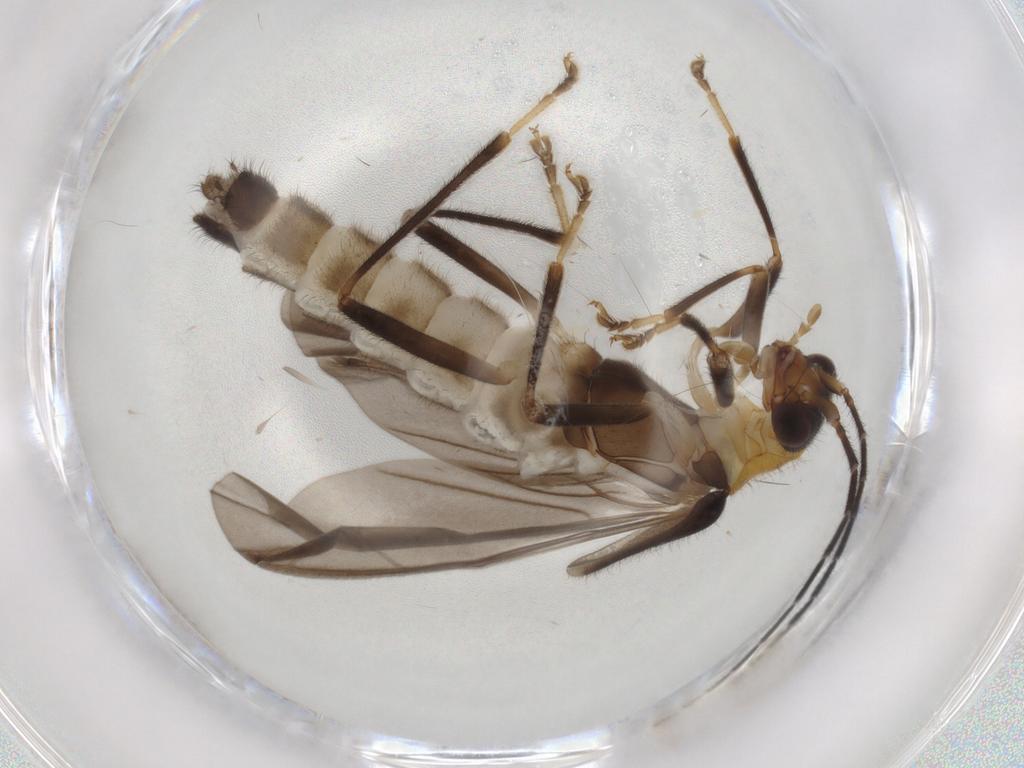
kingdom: Animalia
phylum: Arthropoda
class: Insecta
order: Coleoptera
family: Cantharidae
